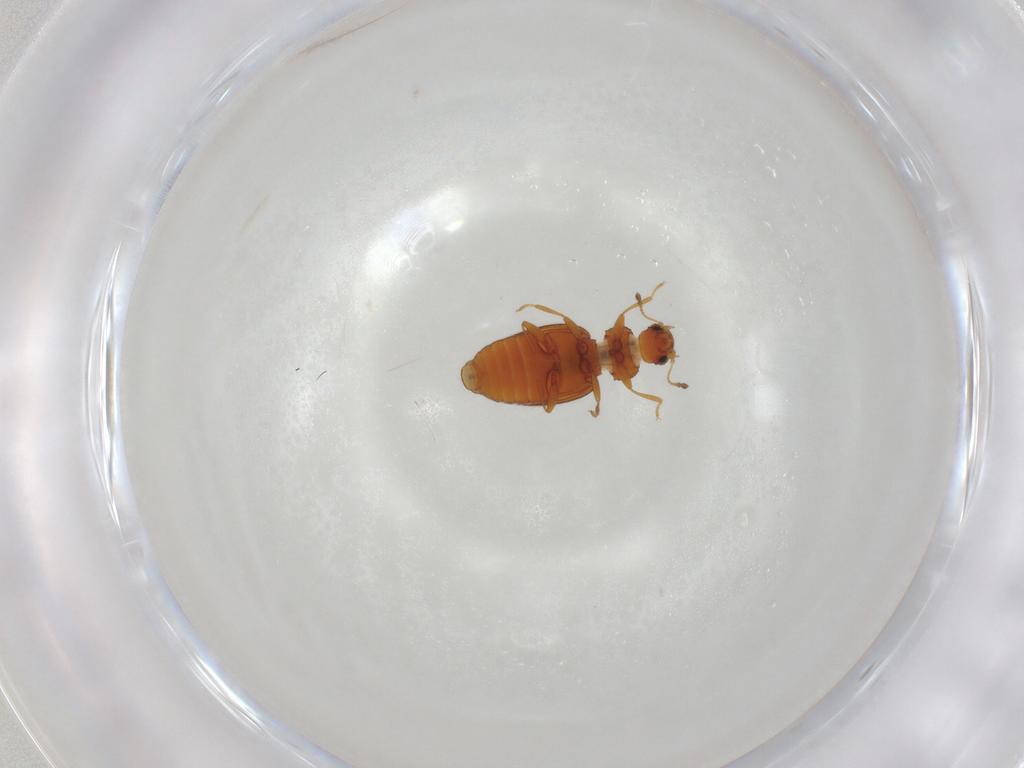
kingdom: Animalia
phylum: Arthropoda
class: Insecta
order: Coleoptera
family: Latridiidae
